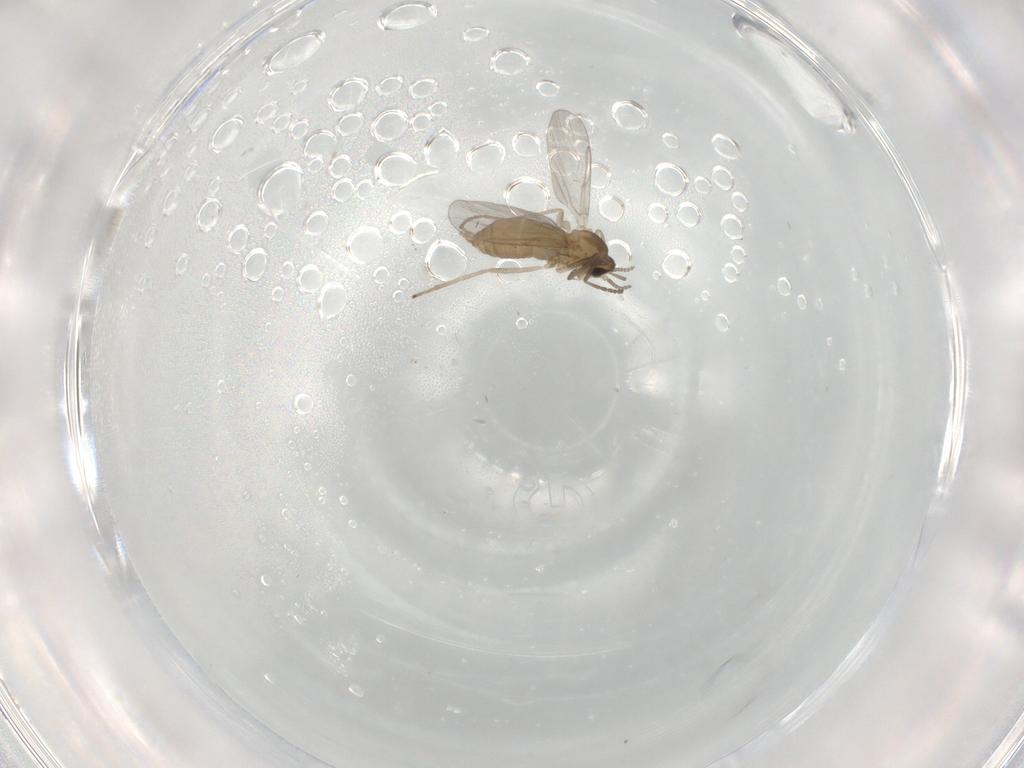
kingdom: Animalia
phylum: Arthropoda
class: Insecta
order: Diptera
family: Cecidomyiidae
